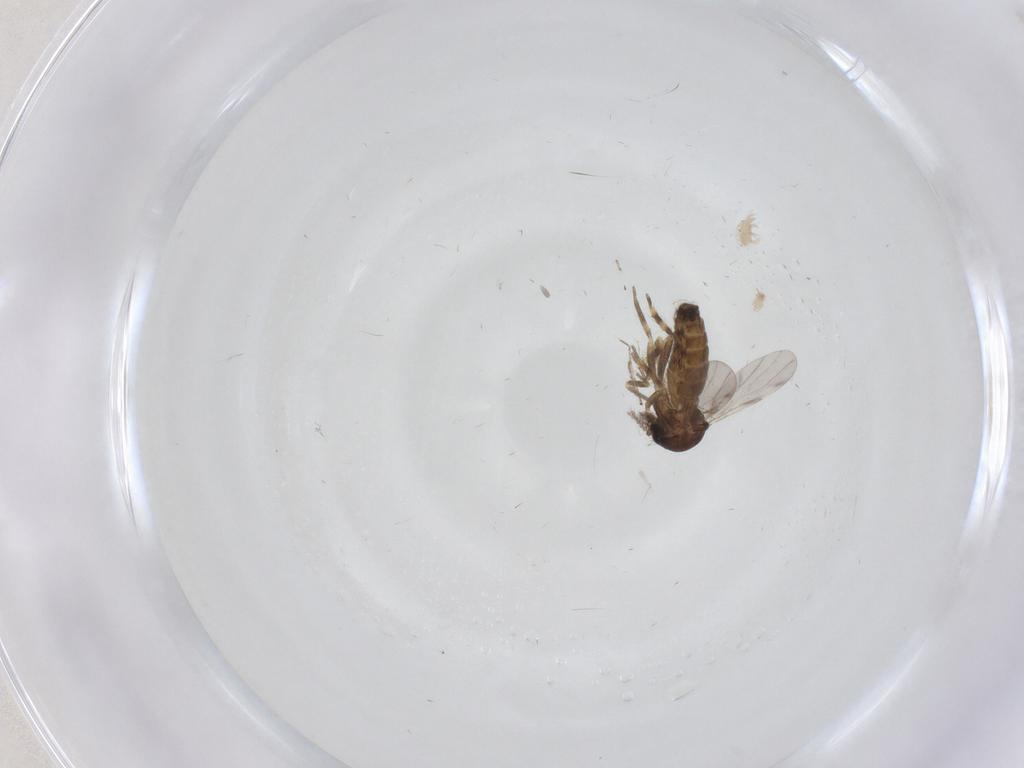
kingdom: Animalia
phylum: Arthropoda
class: Insecta
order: Diptera
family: Ceratopogonidae
